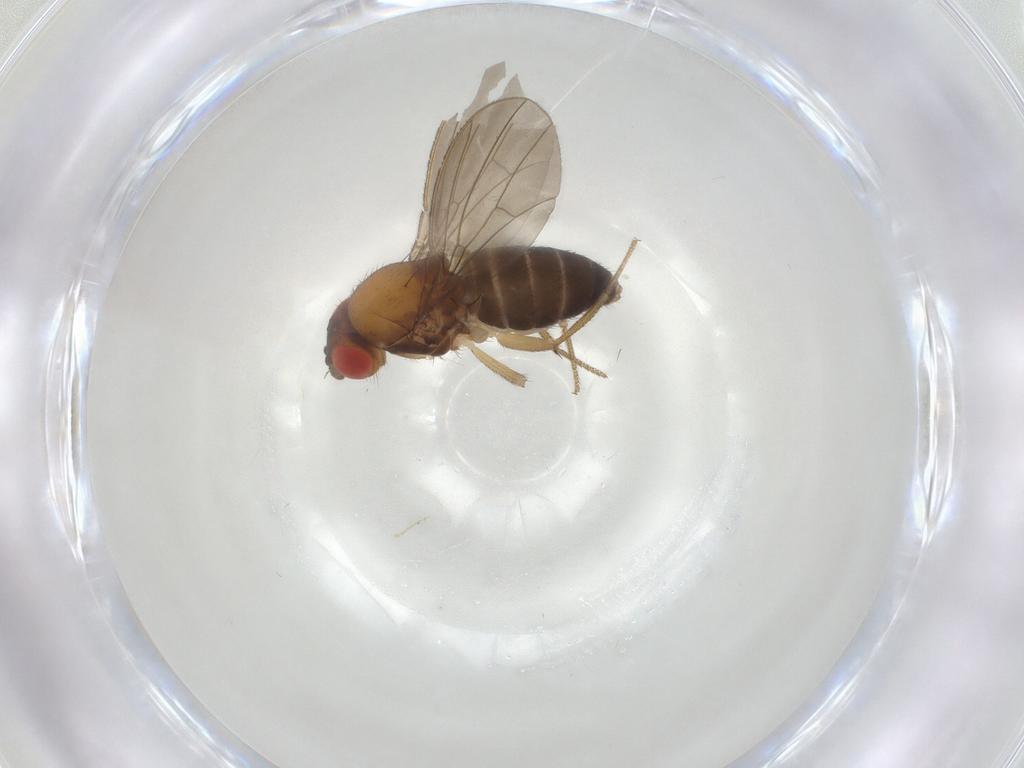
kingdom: Animalia
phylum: Arthropoda
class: Insecta
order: Diptera
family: Drosophilidae
